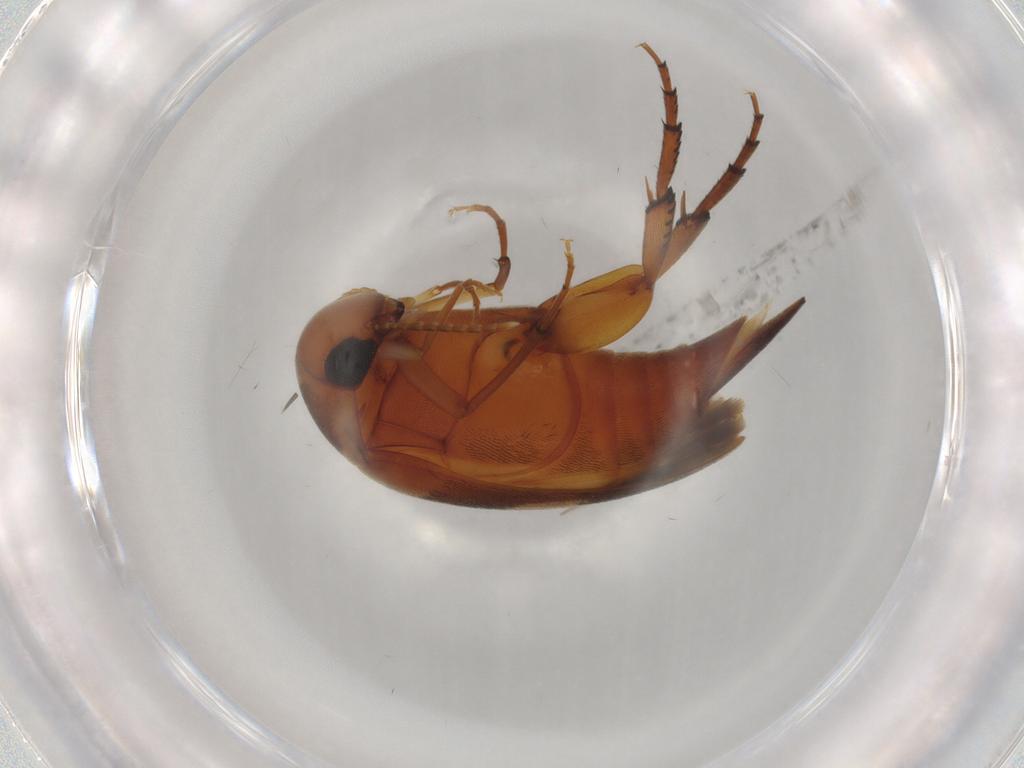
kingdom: Animalia
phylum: Arthropoda
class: Insecta
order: Coleoptera
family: Mordellidae
